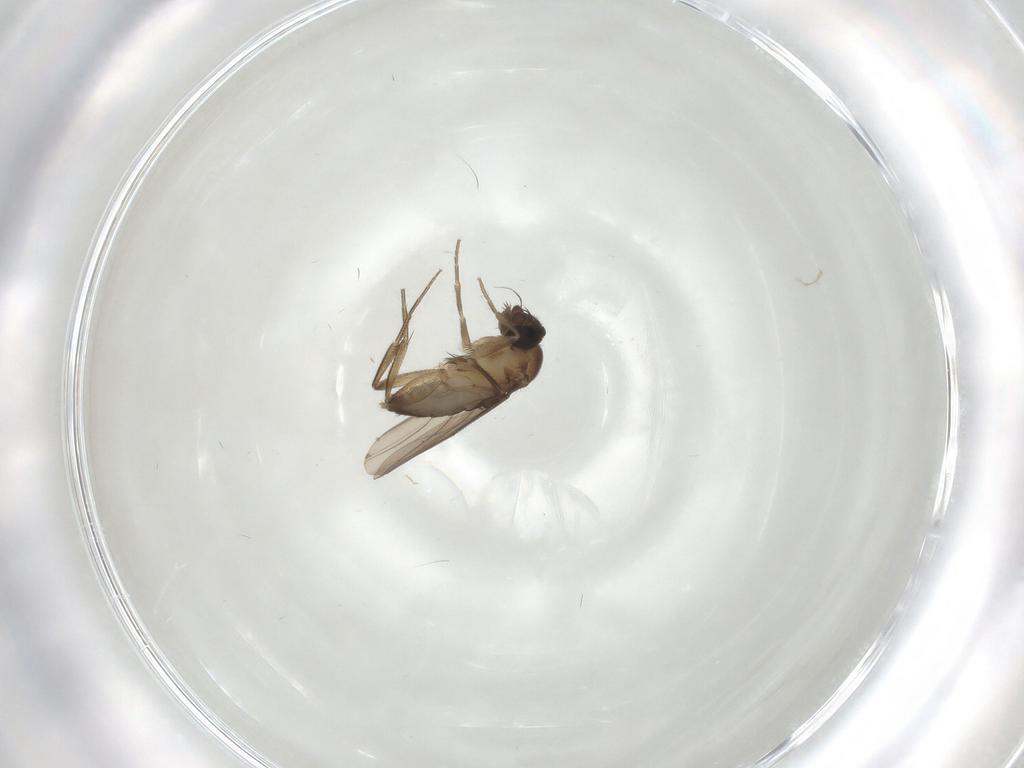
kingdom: Animalia
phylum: Arthropoda
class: Insecta
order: Diptera
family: Phoridae
